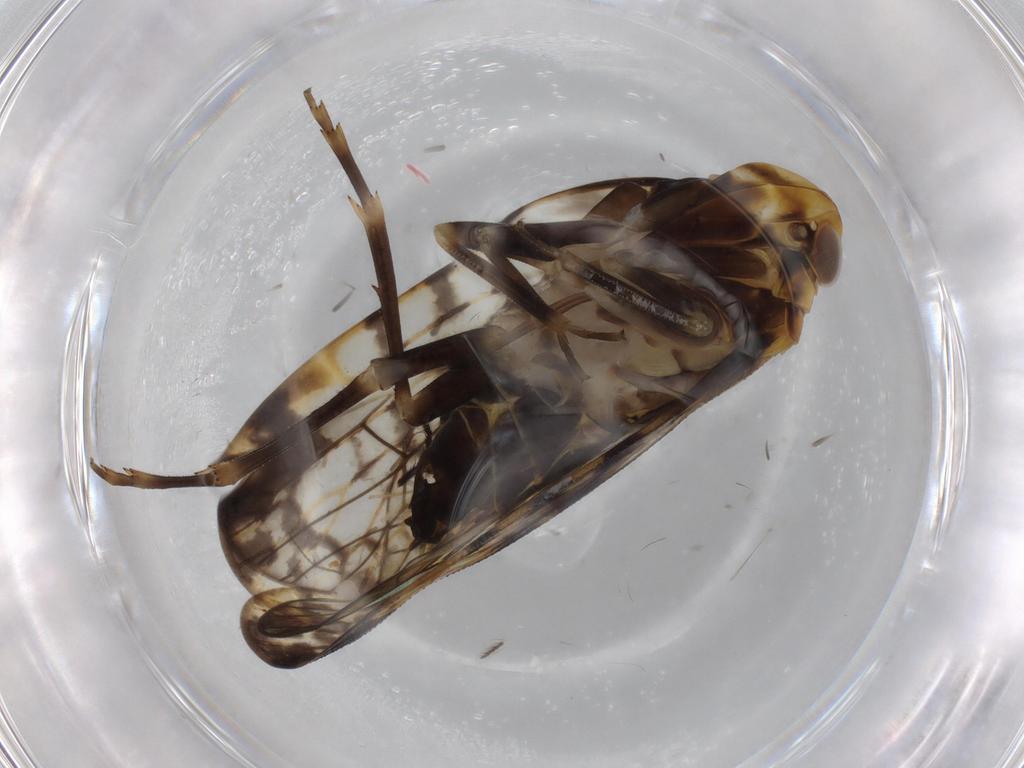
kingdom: Animalia
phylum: Arthropoda
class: Insecta
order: Hemiptera
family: Cixiidae
